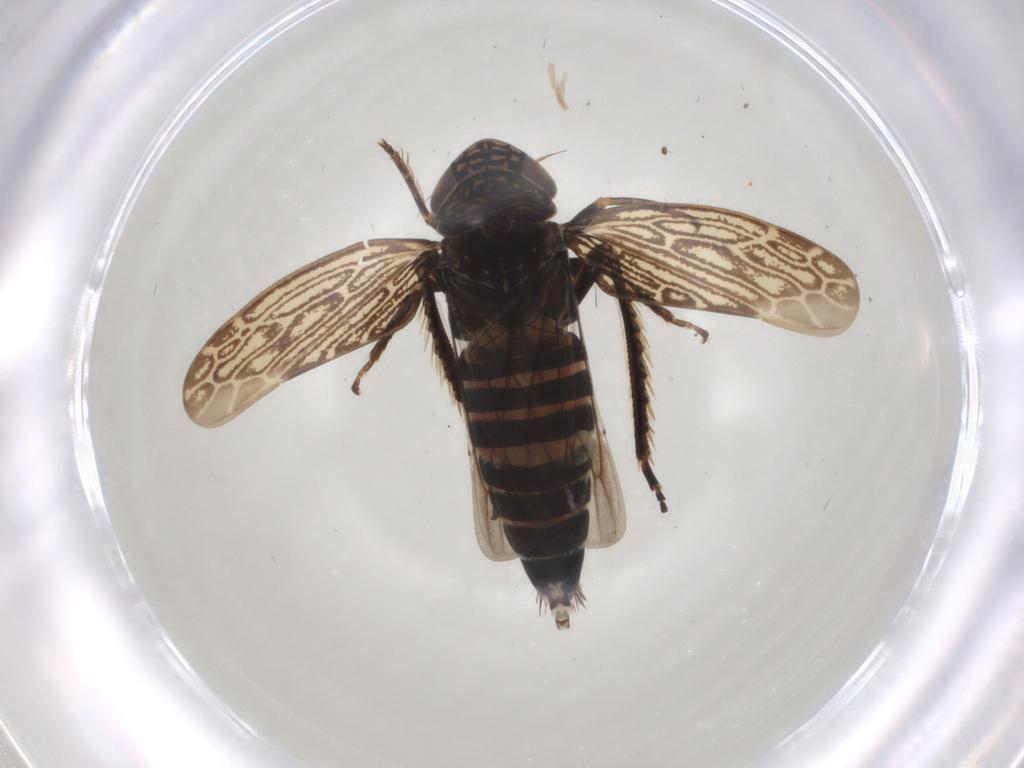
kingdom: Animalia
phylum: Arthropoda
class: Insecta
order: Hemiptera
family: Cicadellidae
